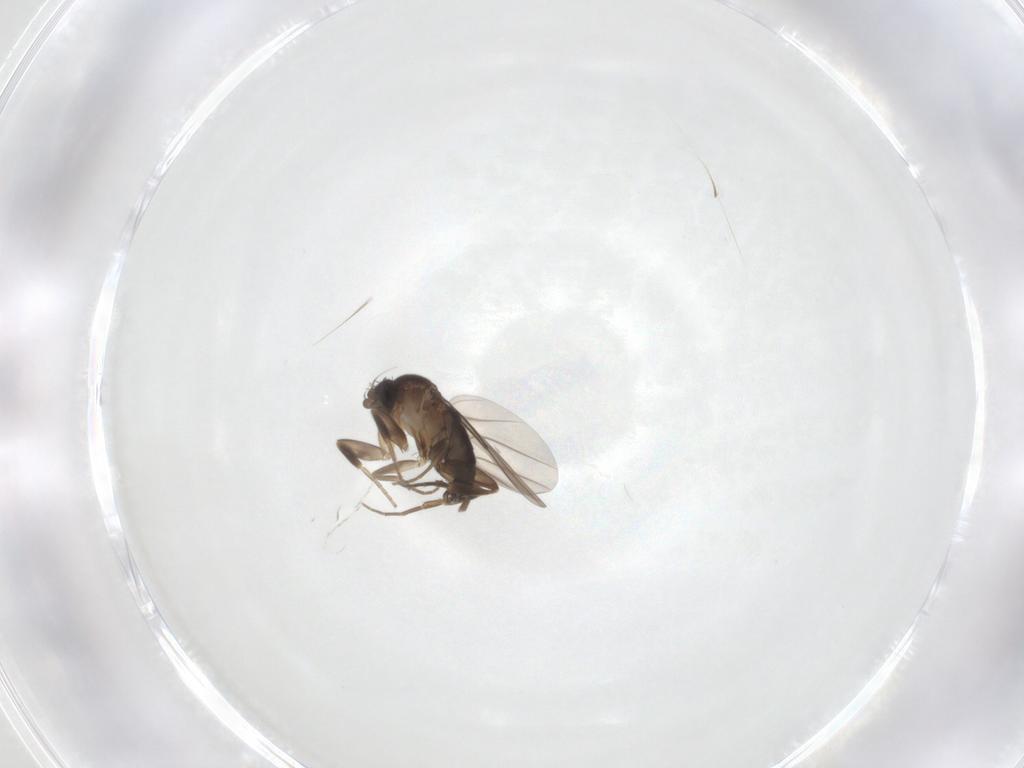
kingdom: Animalia
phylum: Arthropoda
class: Insecta
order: Diptera
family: Phoridae
